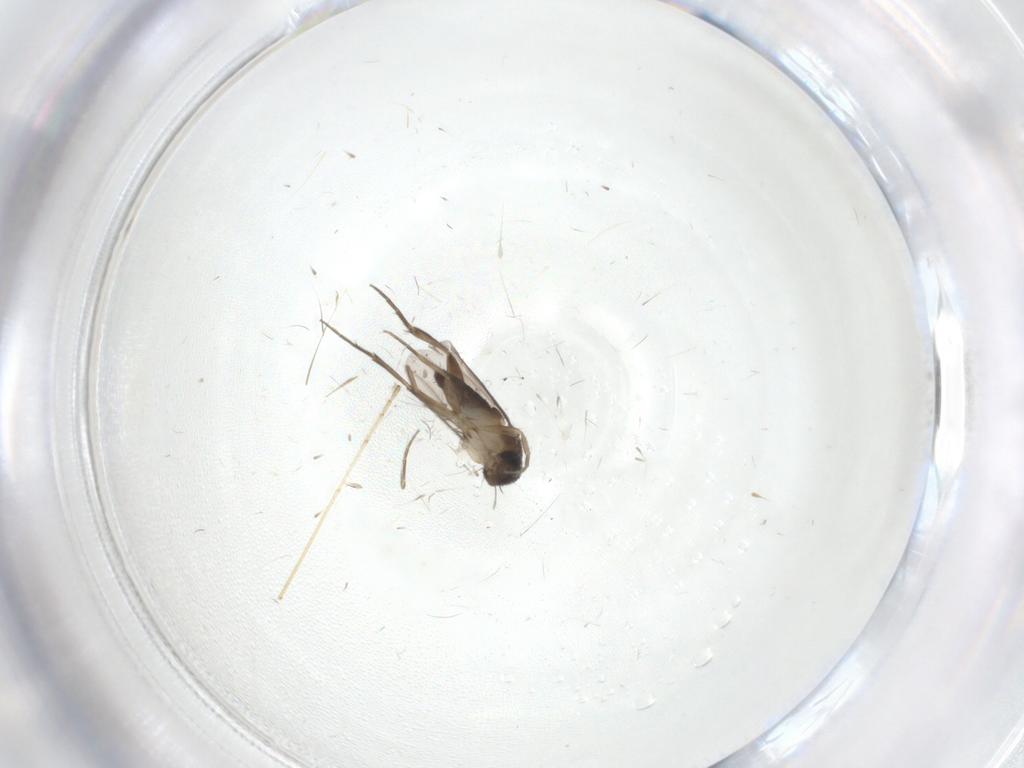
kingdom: Animalia
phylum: Arthropoda
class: Insecta
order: Diptera
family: Phoridae
